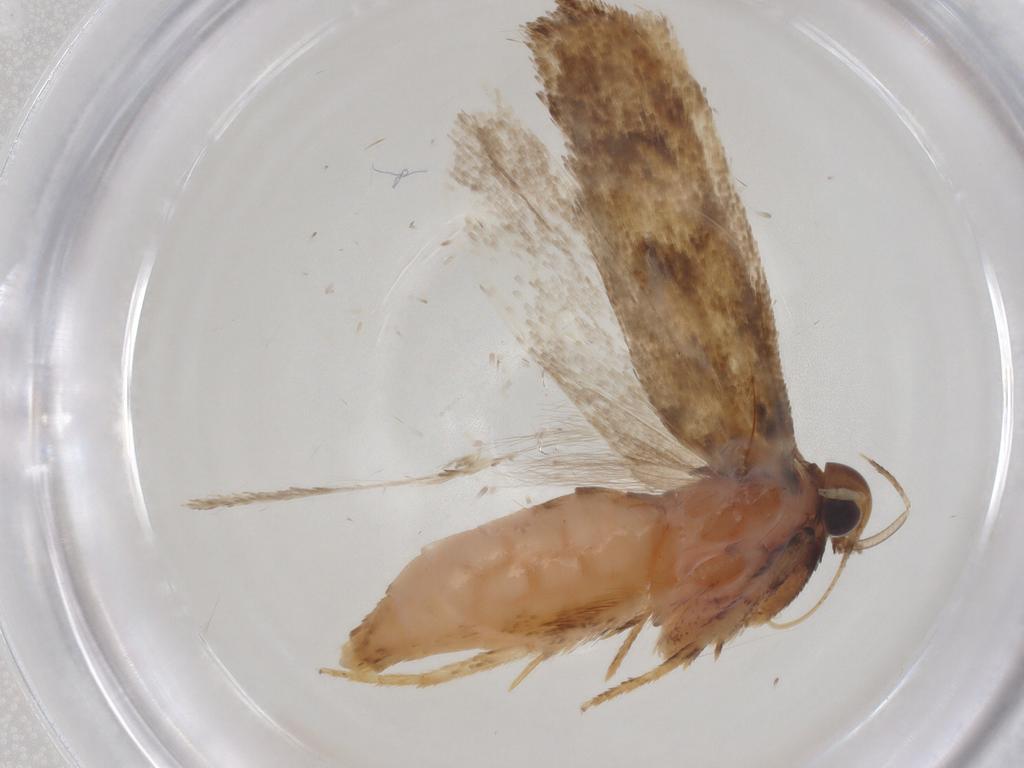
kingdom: Animalia
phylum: Arthropoda
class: Insecta
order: Lepidoptera
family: Gelechiidae
